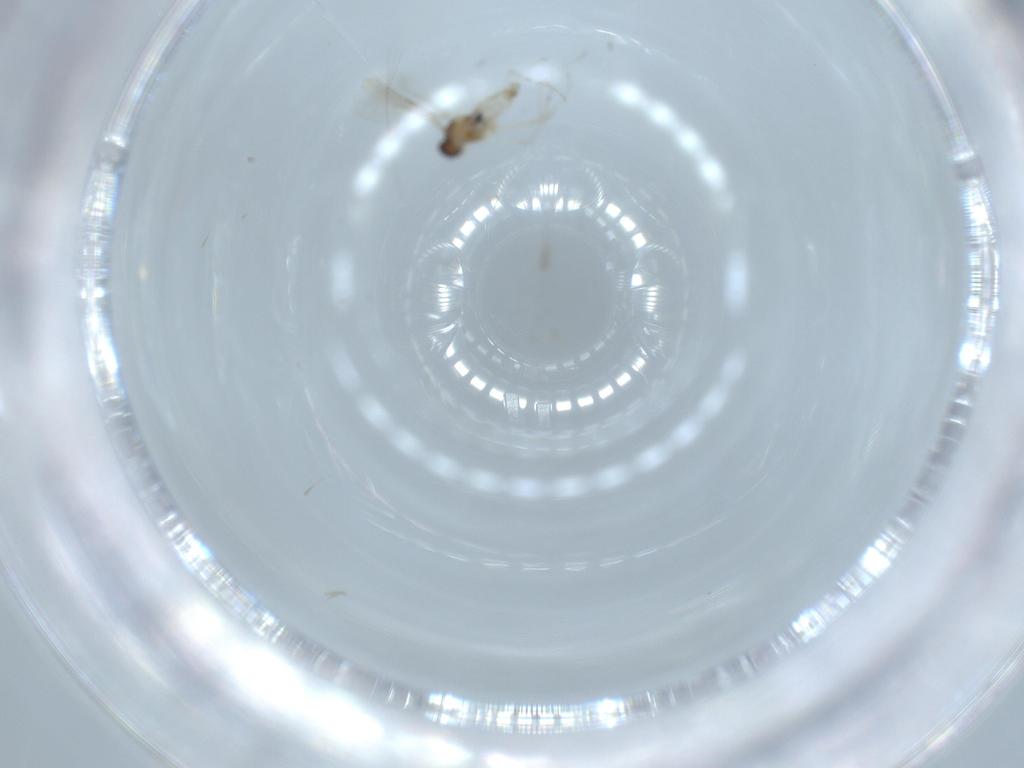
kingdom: Animalia
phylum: Arthropoda
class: Insecta
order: Diptera
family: Cecidomyiidae
